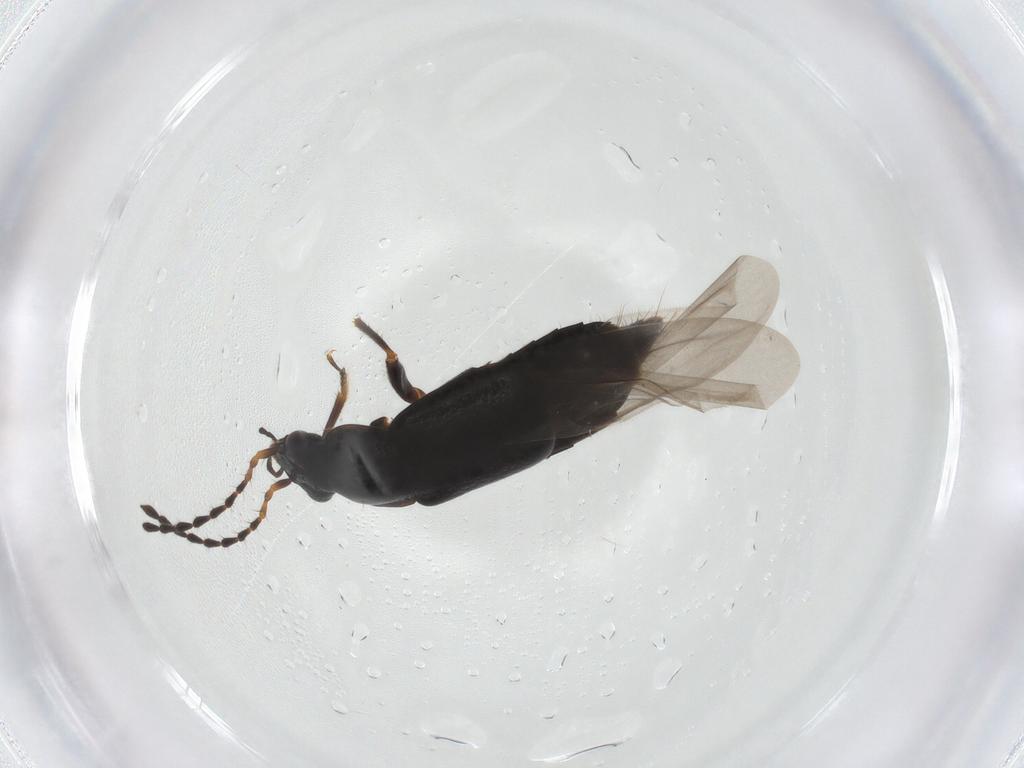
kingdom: Animalia
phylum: Arthropoda
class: Insecta
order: Coleoptera
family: Staphylinidae
